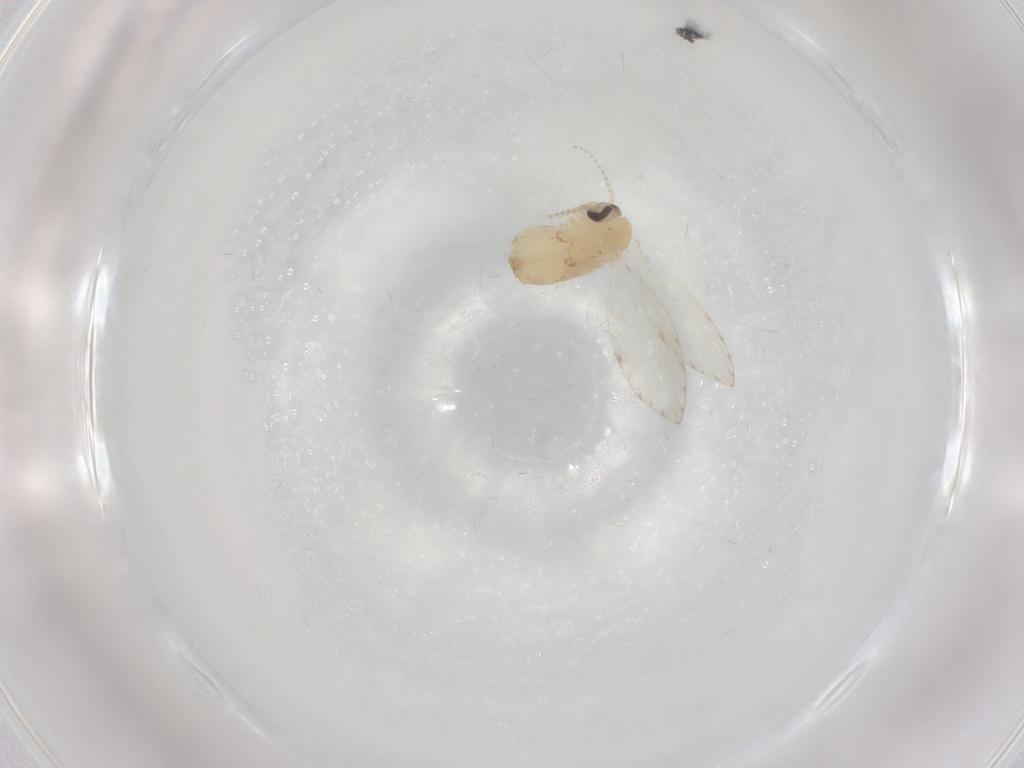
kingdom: Animalia
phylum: Arthropoda
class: Insecta
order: Diptera
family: Psychodidae
